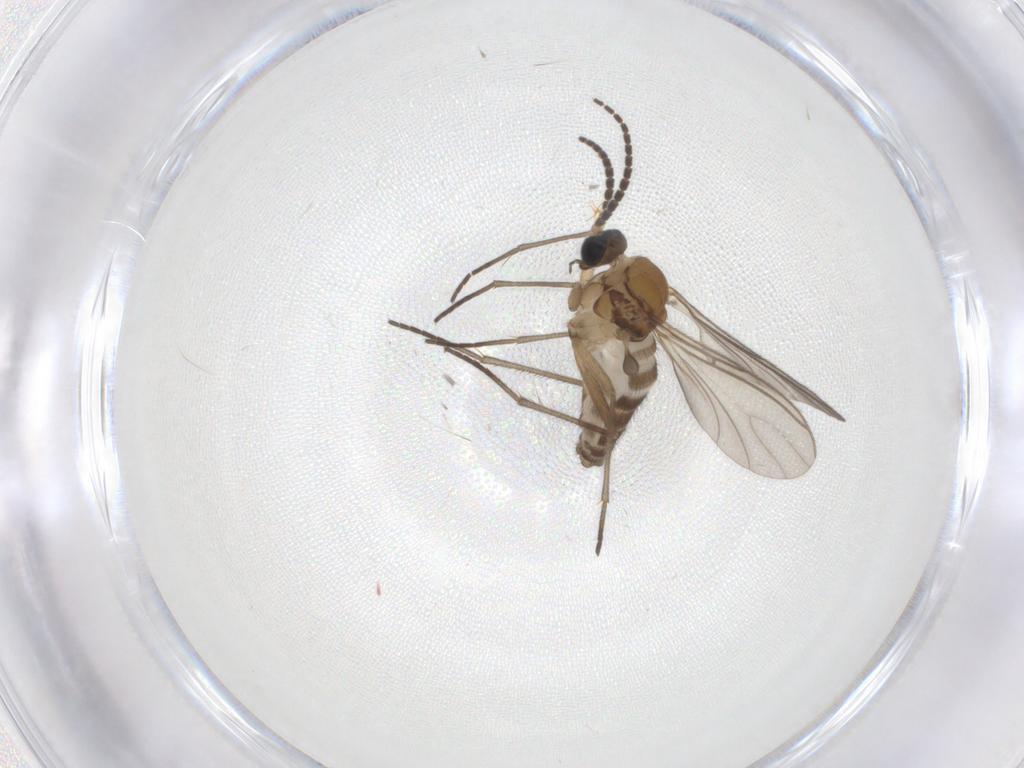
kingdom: Animalia
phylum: Arthropoda
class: Insecta
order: Diptera
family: Sciaridae
